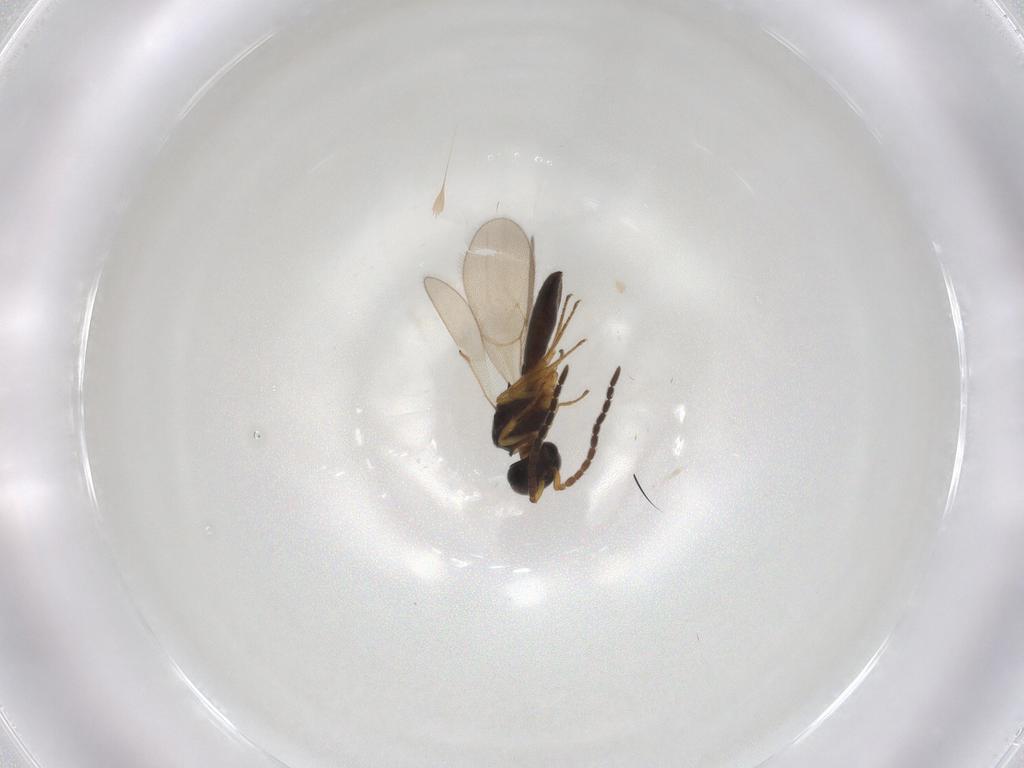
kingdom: Animalia
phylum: Arthropoda
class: Insecta
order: Hymenoptera
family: Scelionidae
